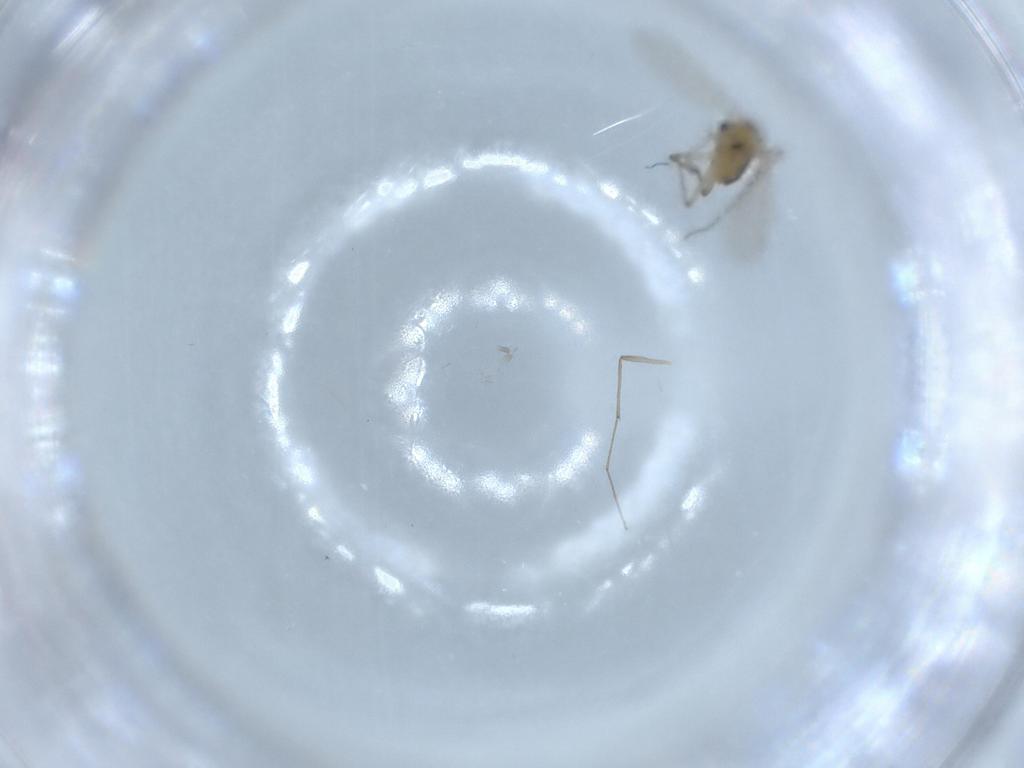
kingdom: Animalia
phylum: Arthropoda
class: Insecta
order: Diptera
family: Chironomidae
